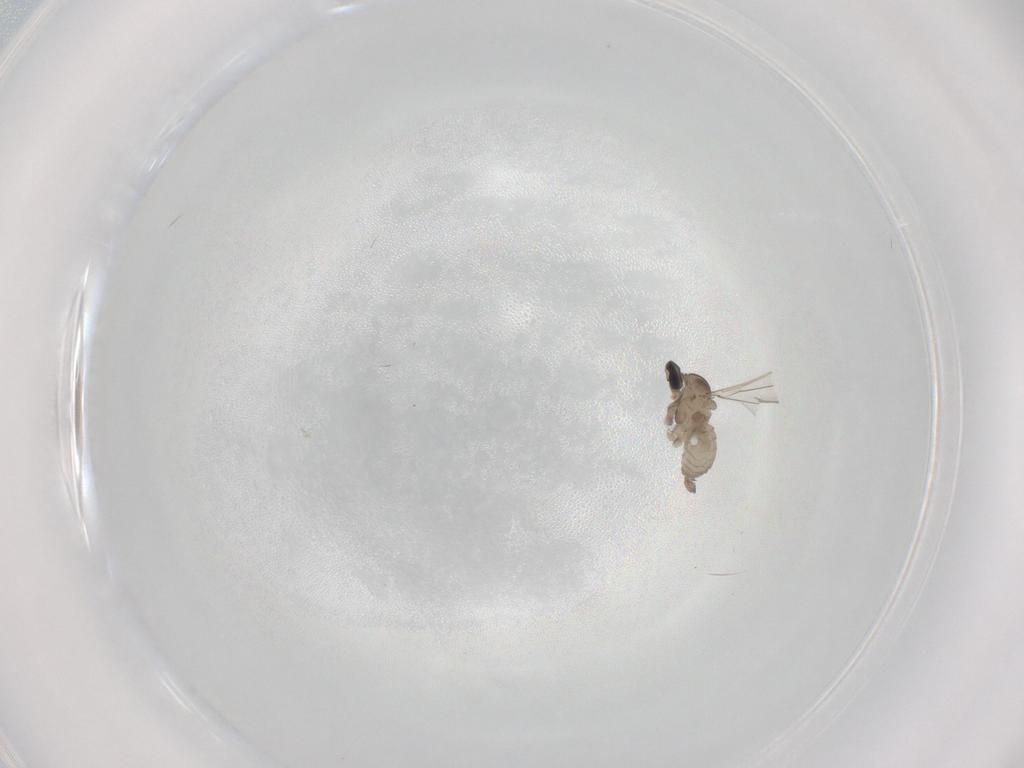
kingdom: Animalia
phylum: Arthropoda
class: Insecta
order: Diptera
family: Cecidomyiidae
